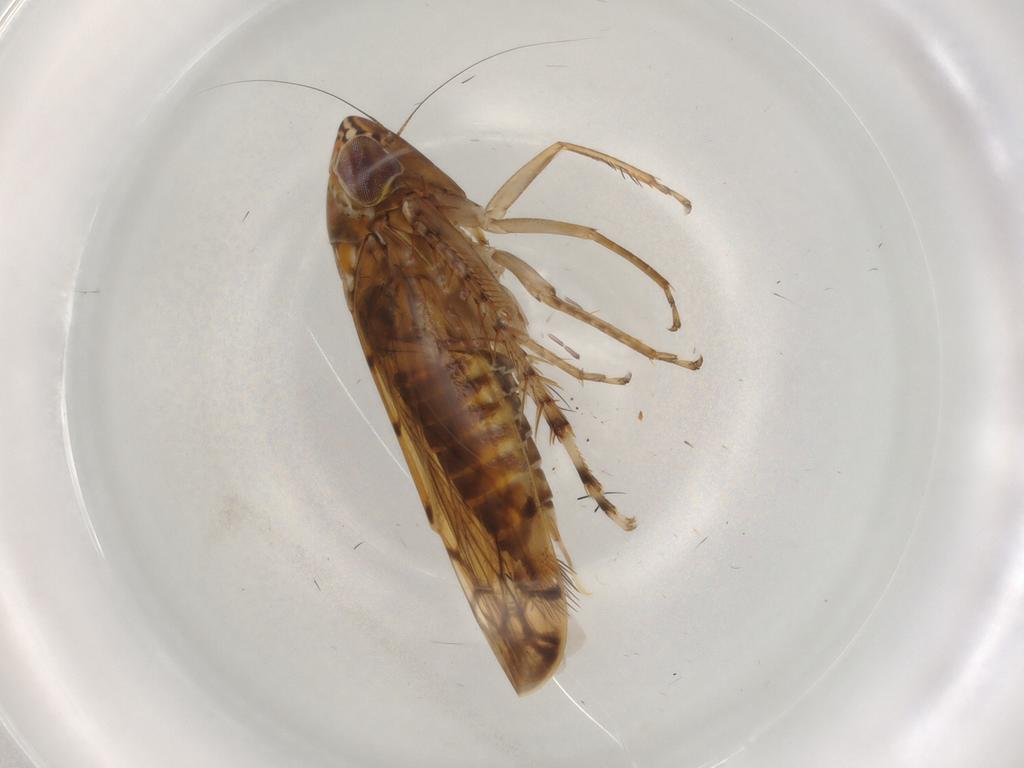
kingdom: Animalia
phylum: Arthropoda
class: Insecta
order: Hemiptera
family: Cicadellidae
